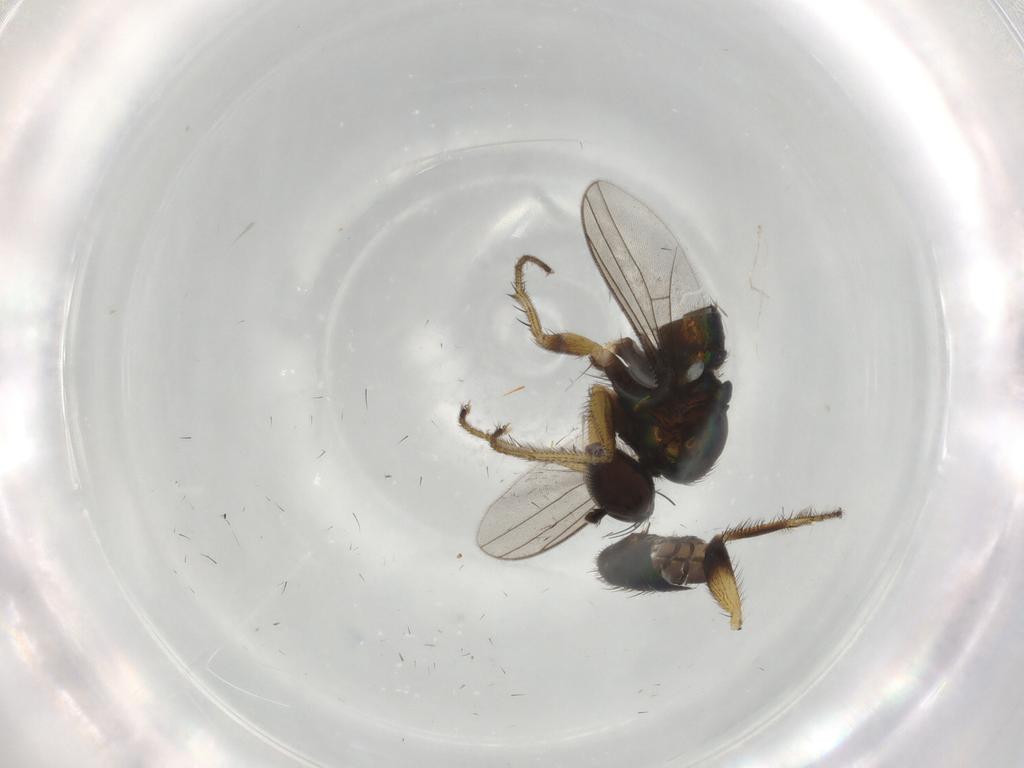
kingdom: Animalia
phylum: Arthropoda
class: Insecta
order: Diptera
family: Dolichopodidae
